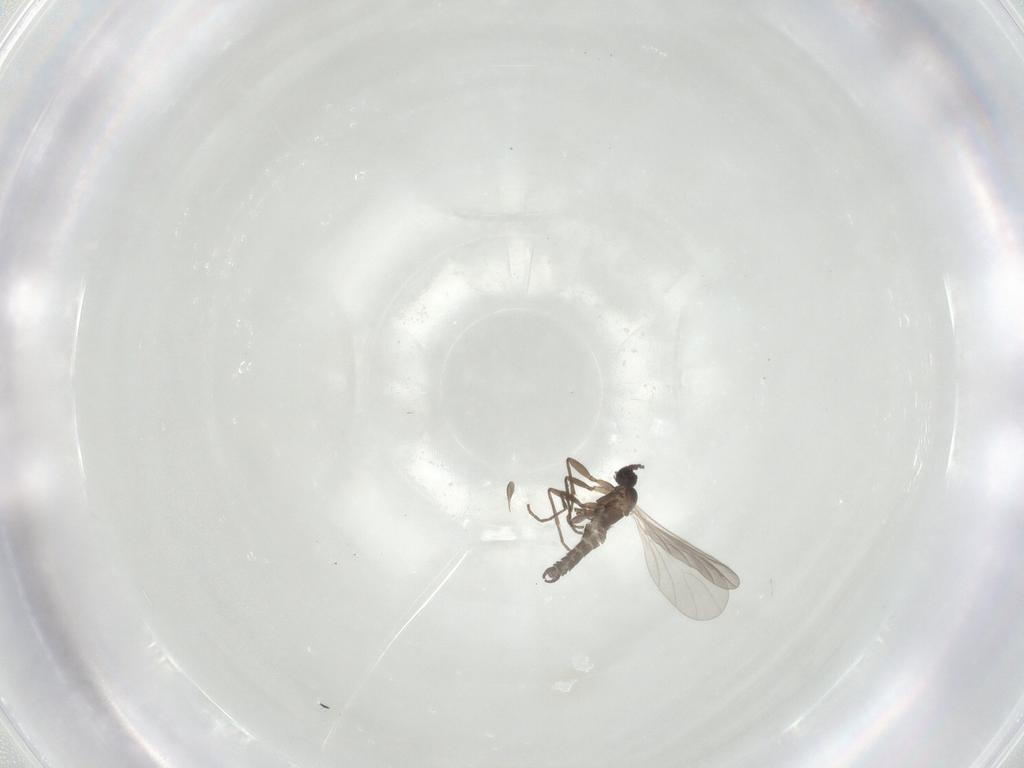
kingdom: Animalia
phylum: Arthropoda
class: Insecta
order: Diptera
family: Sciaridae
